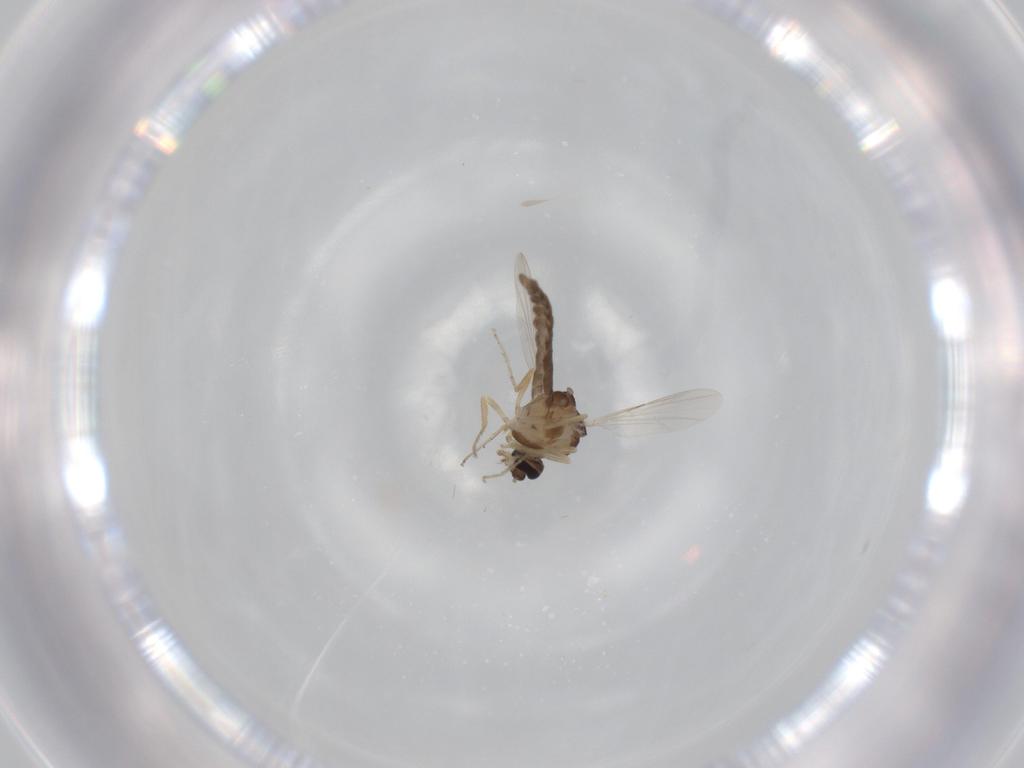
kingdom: Animalia
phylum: Arthropoda
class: Insecta
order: Diptera
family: Ceratopogonidae
